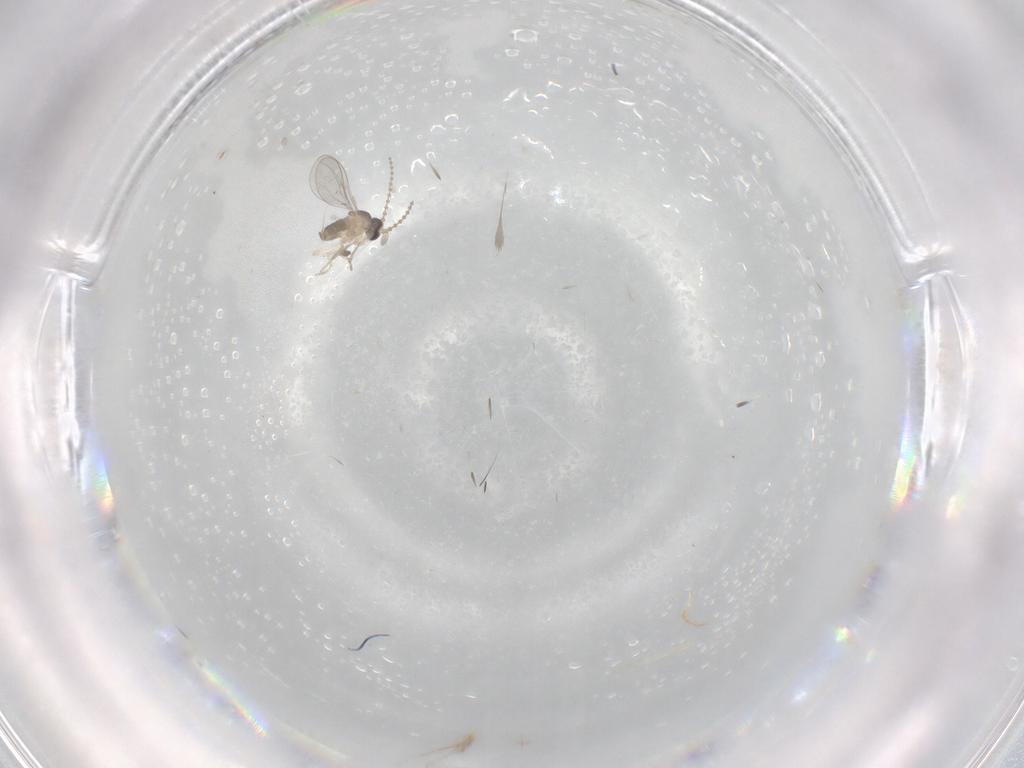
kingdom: Animalia
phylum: Arthropoda
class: Insecta
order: Diptera
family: Cecidomyiidae
